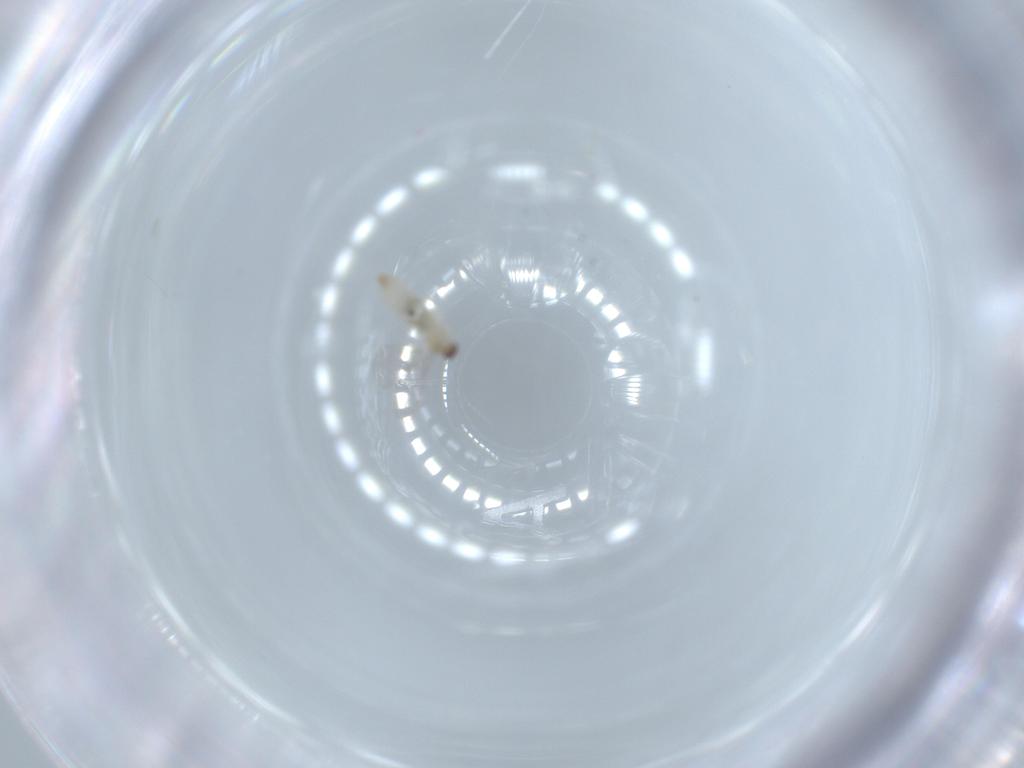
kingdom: Animalia
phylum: Arthropoda
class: Insecta
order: Diptera
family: Cecidomyiidae
